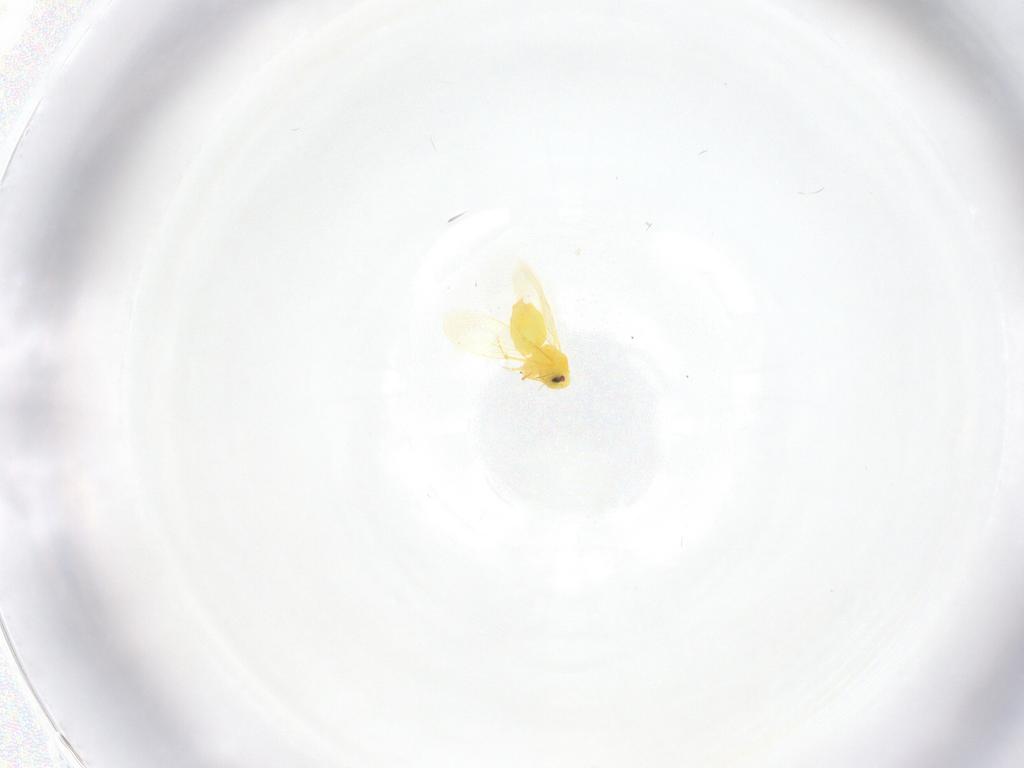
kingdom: Animalia
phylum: Arthropoda
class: Insecta
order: Hemiptera
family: Aleyrodidae
